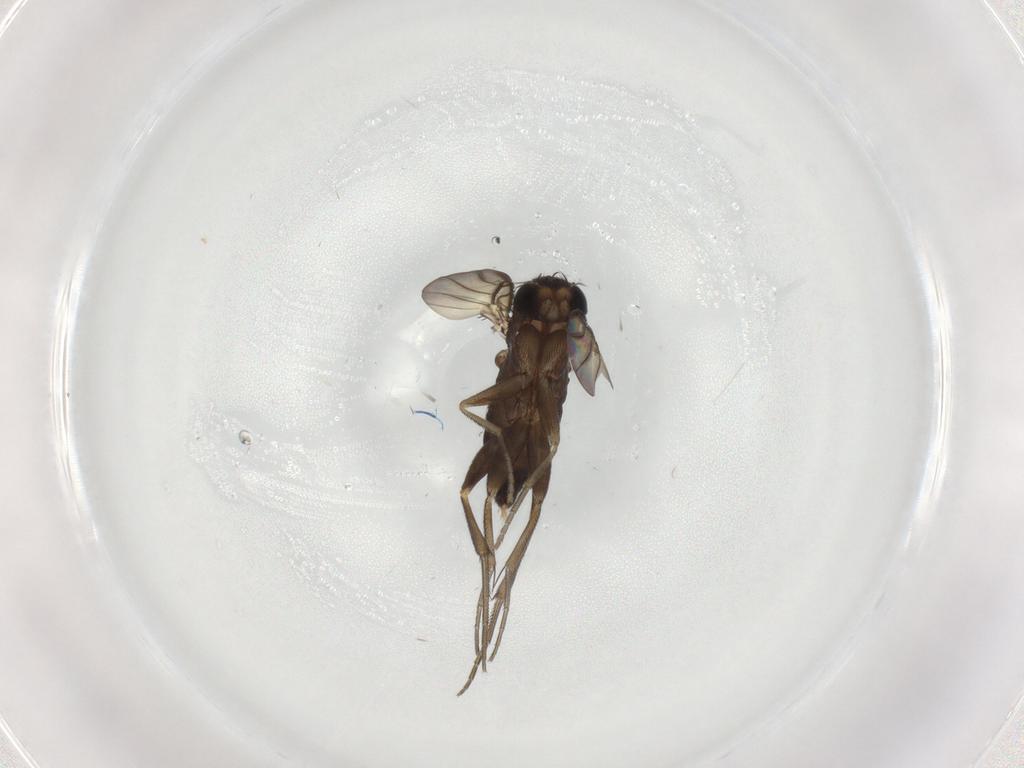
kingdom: Animalia
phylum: Arthropoda
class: Insecta
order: Diptera
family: Phoridae
